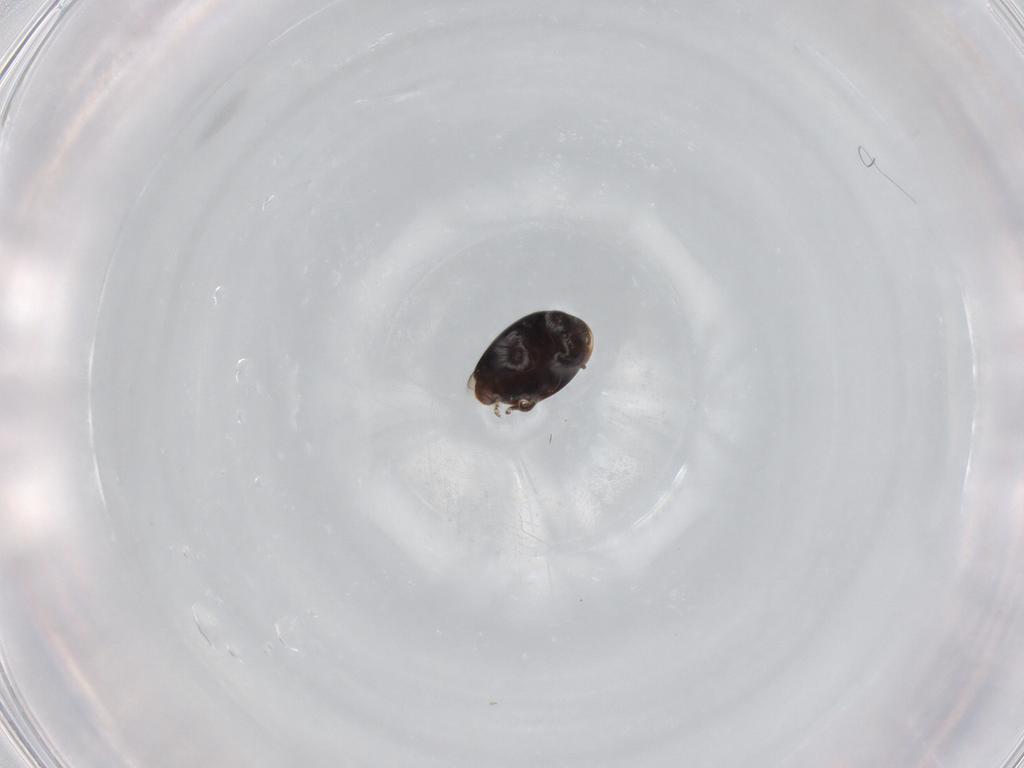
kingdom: Animalia
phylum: Arthropoda
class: Insecta
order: Coleoptera
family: Corylophidae
